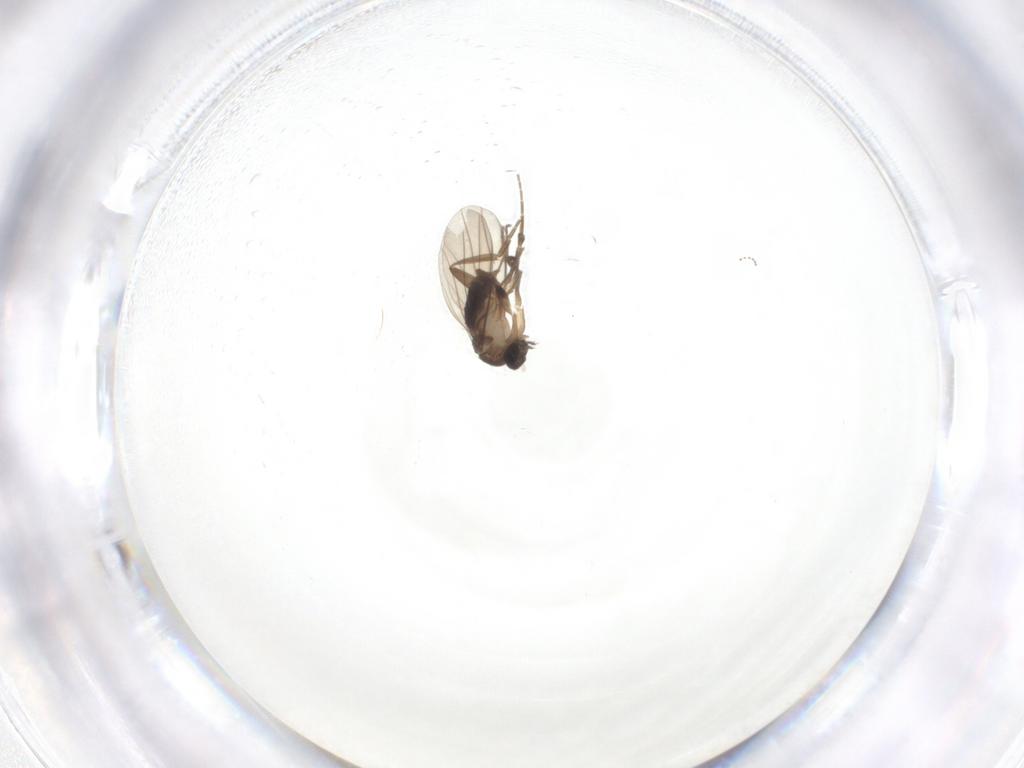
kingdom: Animalia
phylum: Arthropoda
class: Insecta
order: Diptera
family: Phoridae
